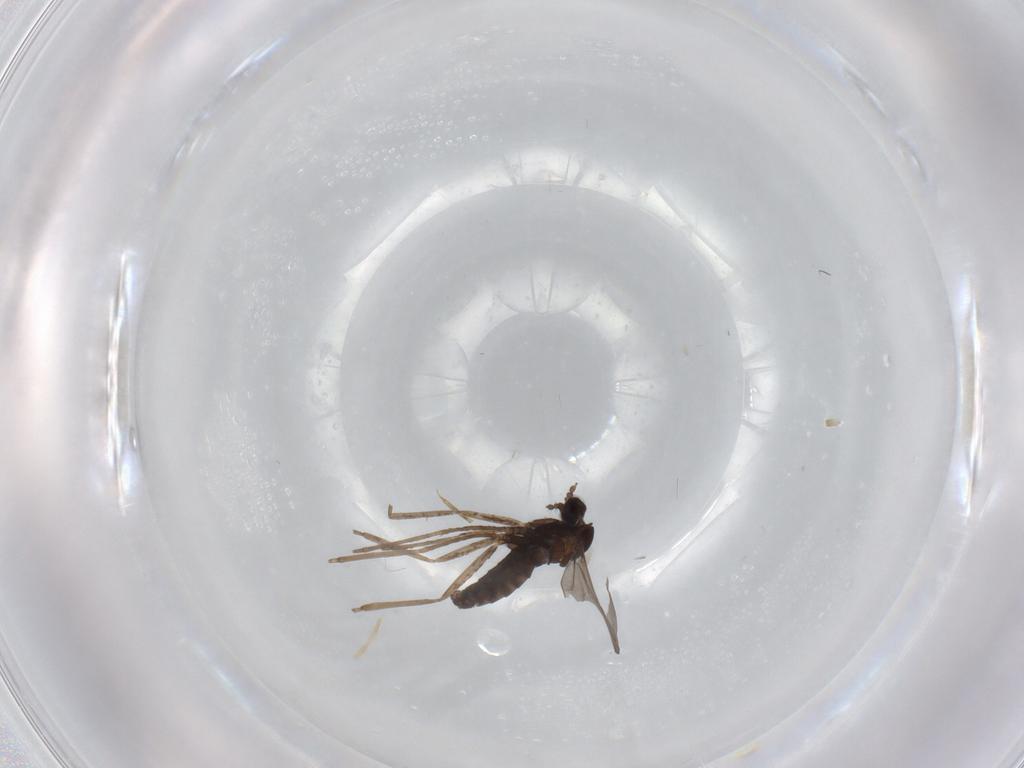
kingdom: Animalia
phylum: Arthropoda
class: Insecta
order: Diptera
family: Cecidomyiidae
